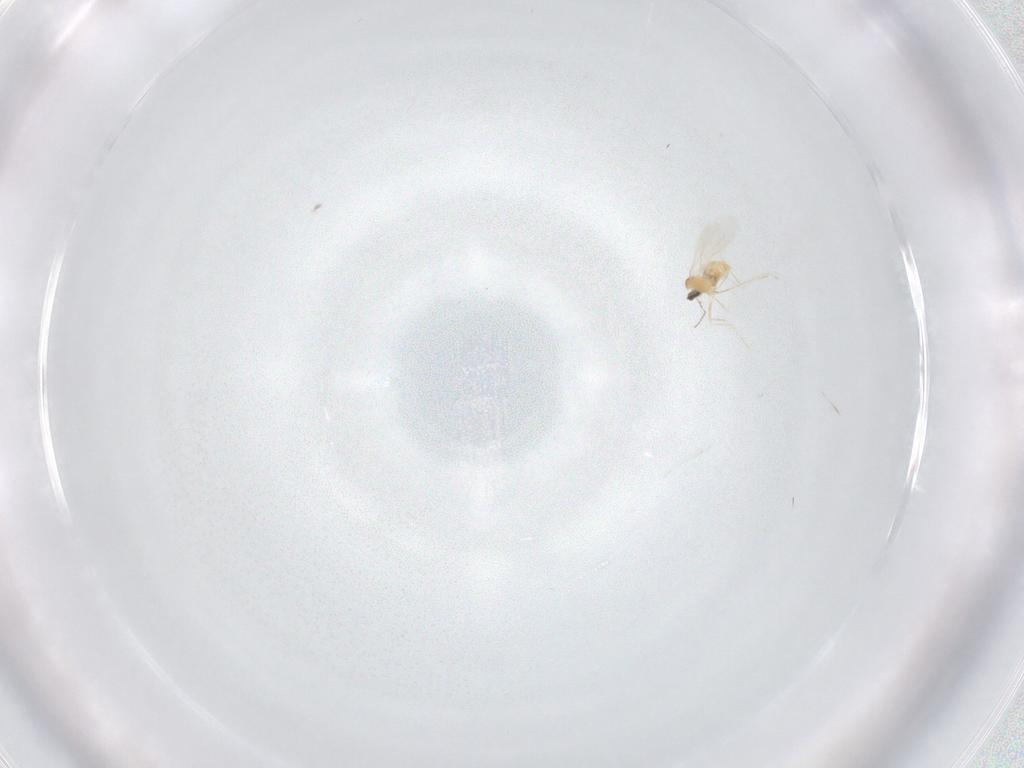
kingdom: Animalia
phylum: Arthropoda
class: Insecta
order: Diptera
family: Cecidomyiidae
